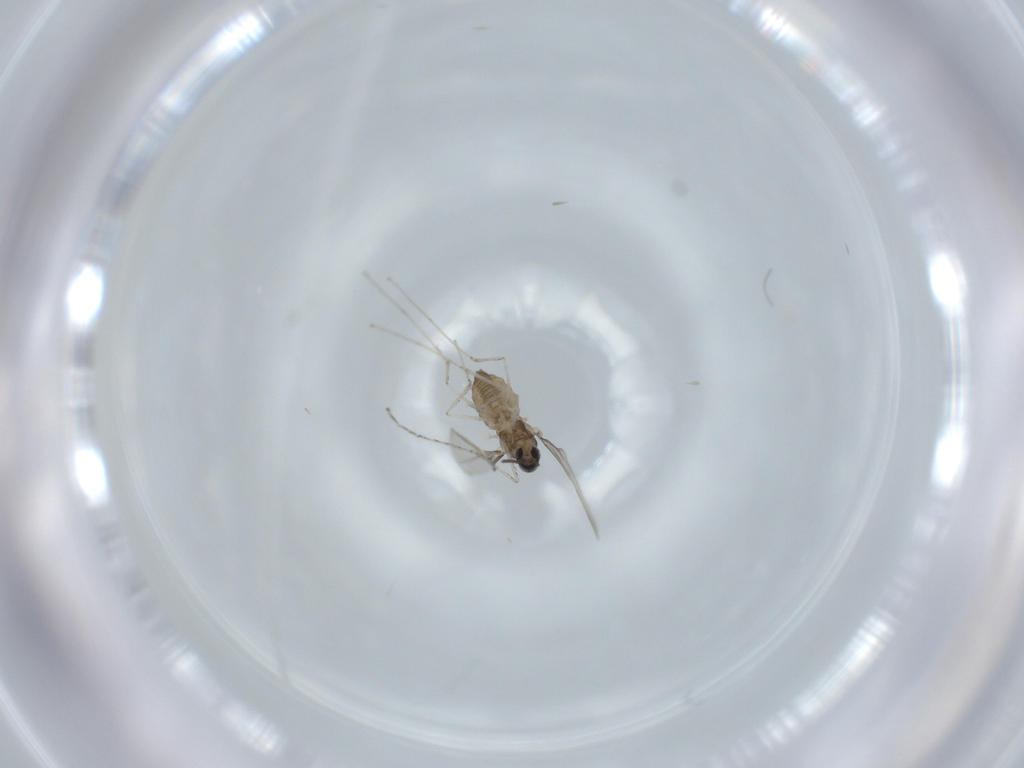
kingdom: Animalia
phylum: Arthropoda
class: Insecta
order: Diptera
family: Cecidomyiidae
